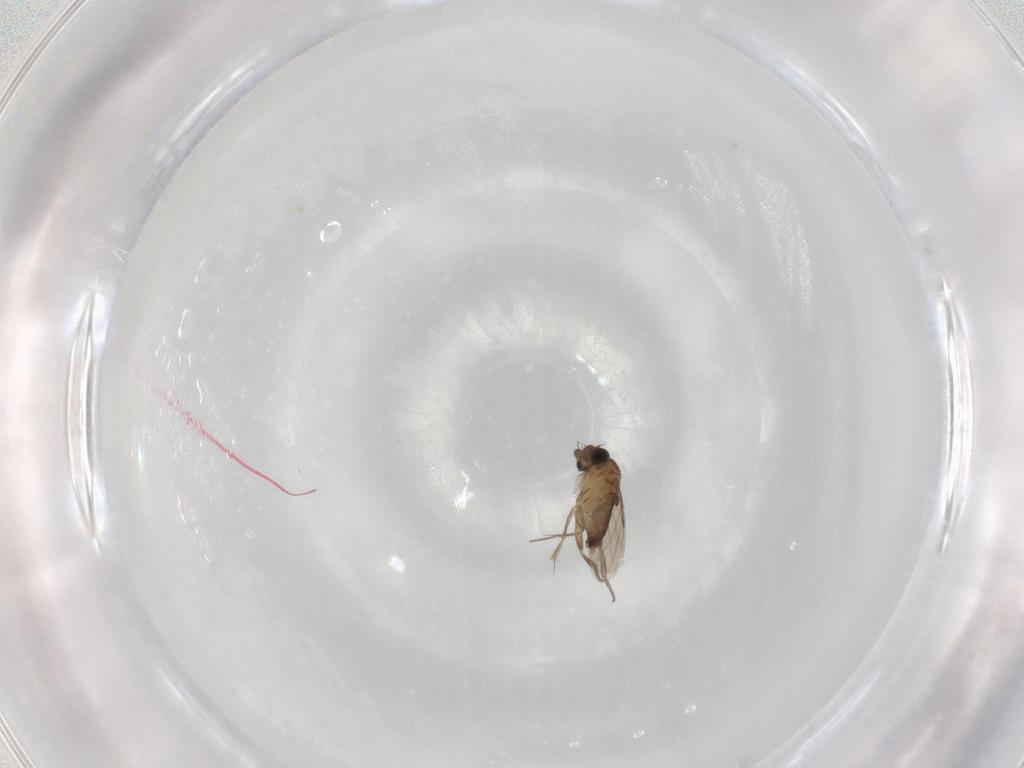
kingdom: Animalia
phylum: Arthropoda
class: Insecta
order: Diptera
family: Phoridae
